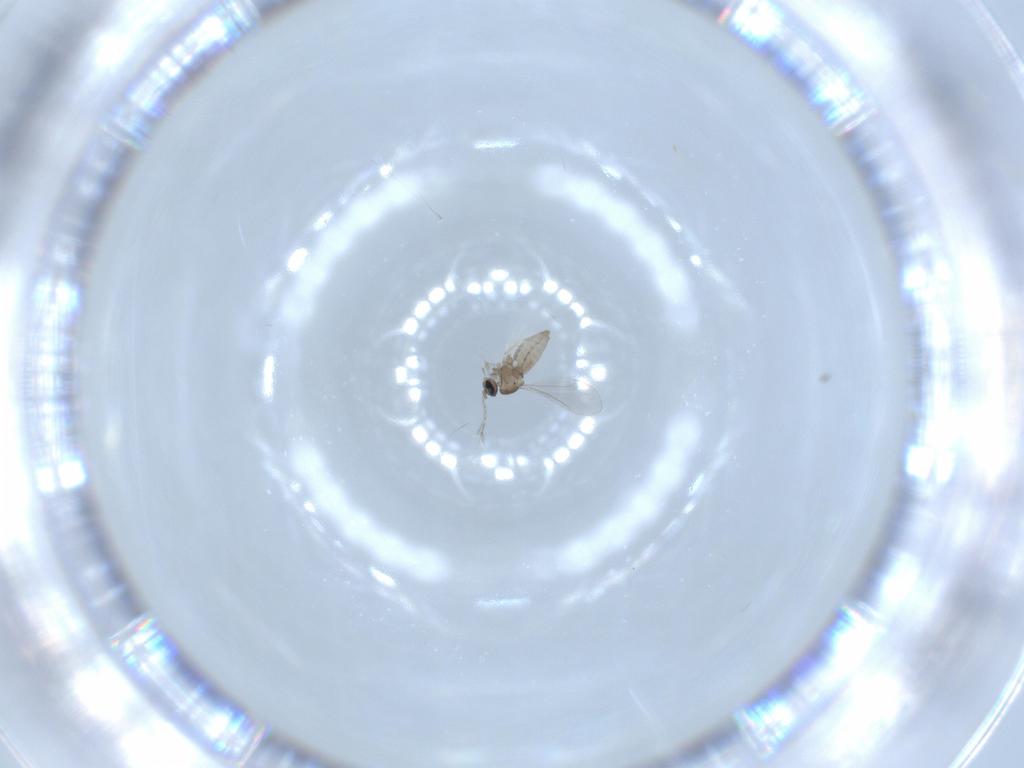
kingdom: Animalia
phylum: Arthropoda
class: Insecta
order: Diptera
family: Cecidomyiidae
